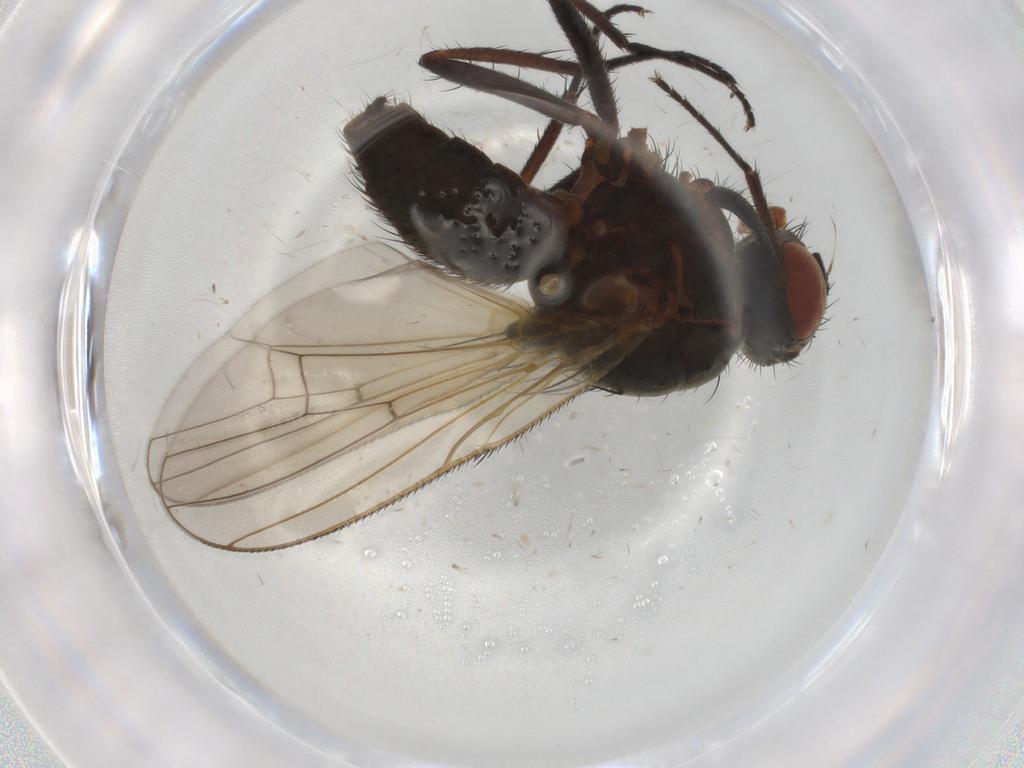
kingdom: Animalia
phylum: Arthropoda
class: Insecta
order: Diptera
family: Anthomyiidae
